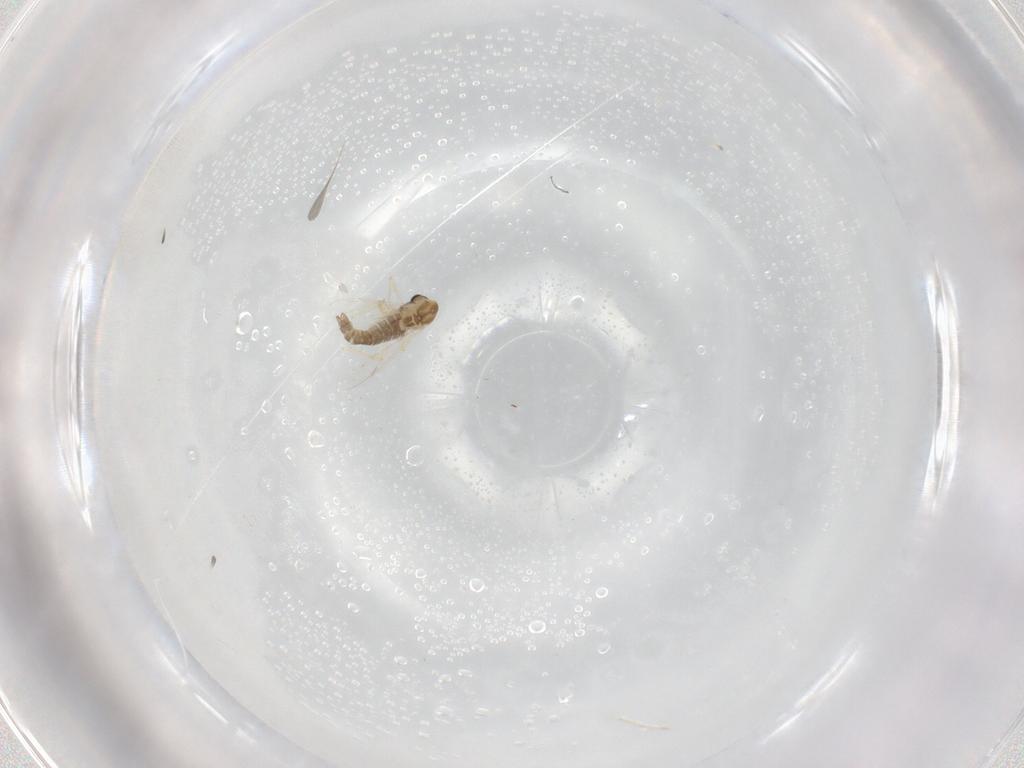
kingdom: Animalia
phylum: Arthropoda
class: Insecta
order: Diptera
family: Chironomidae
